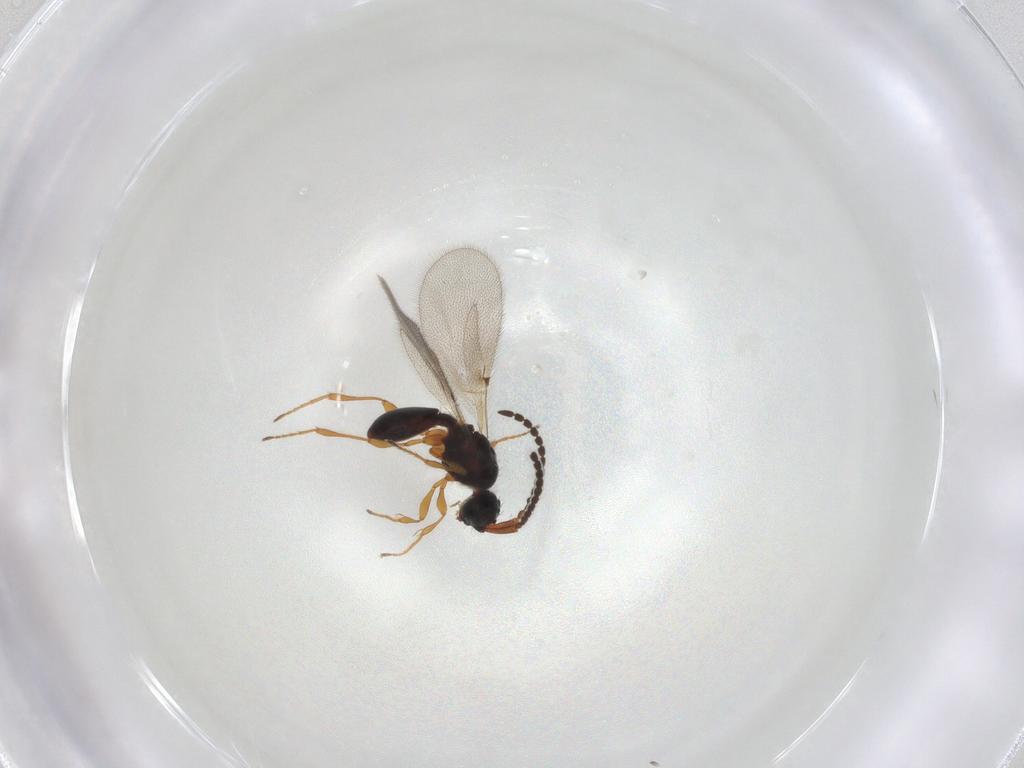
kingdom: Animalia
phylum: Arthropoda
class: Insecta
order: Hymenoptera
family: Diapriidae
